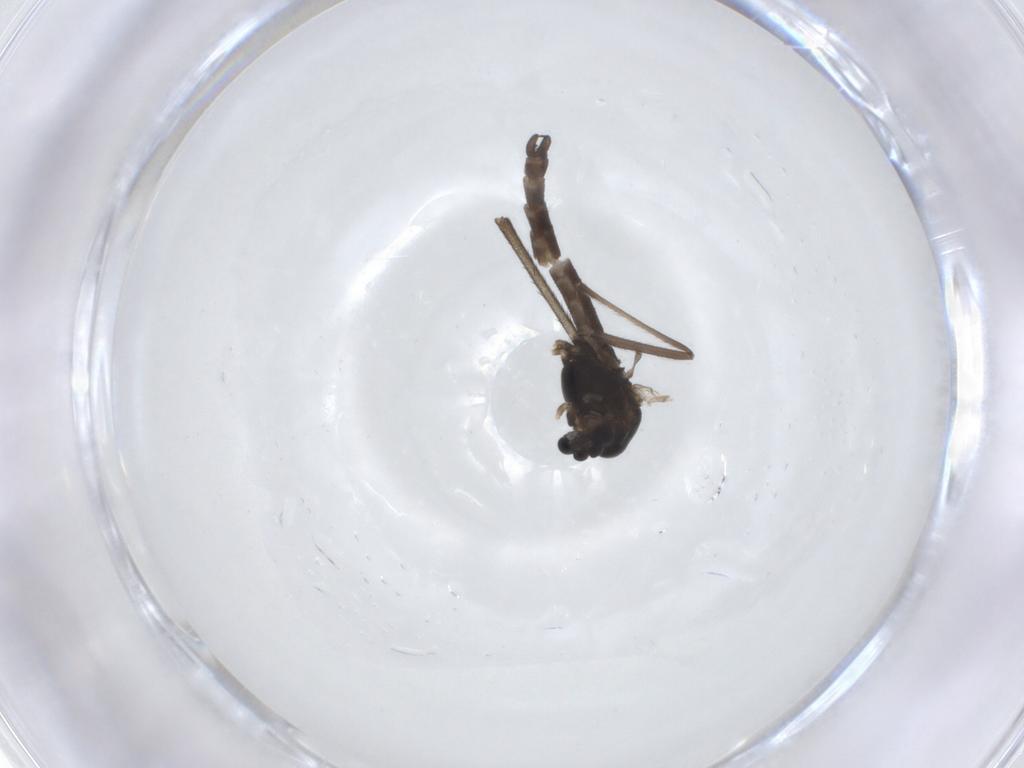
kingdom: Animalia
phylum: Arthropoda
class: Insecta
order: Diptera
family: Chironomidae
